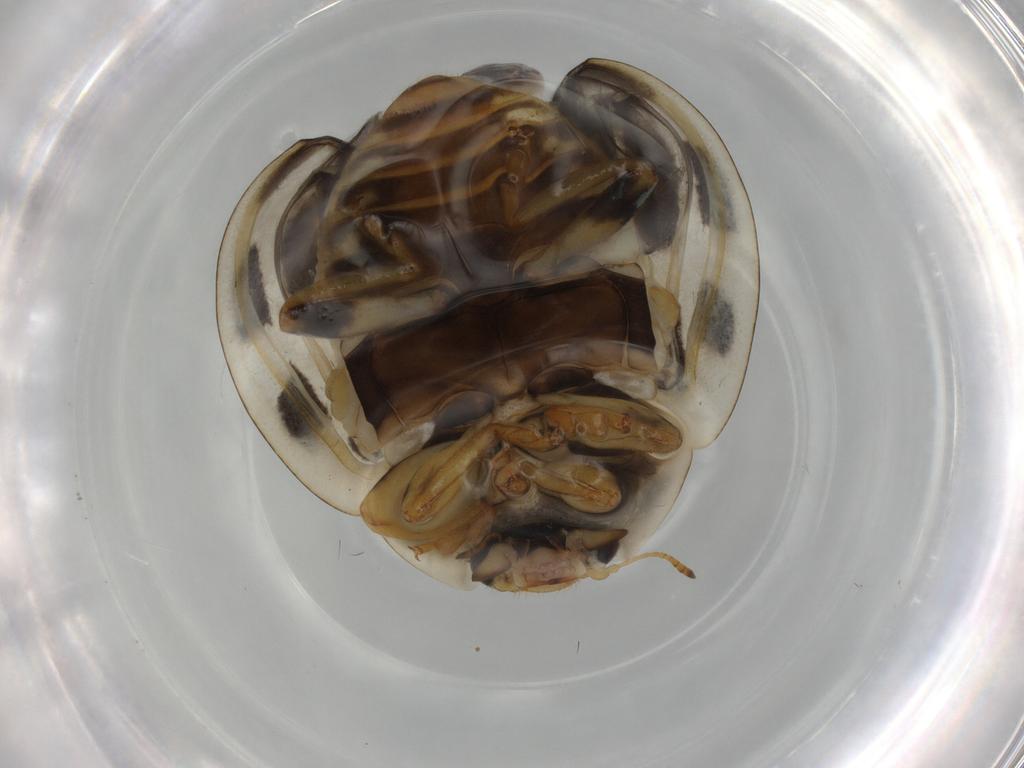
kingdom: Animalia
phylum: Arthropoda
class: Insecta
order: Coleoptera
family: Coccinellidae
